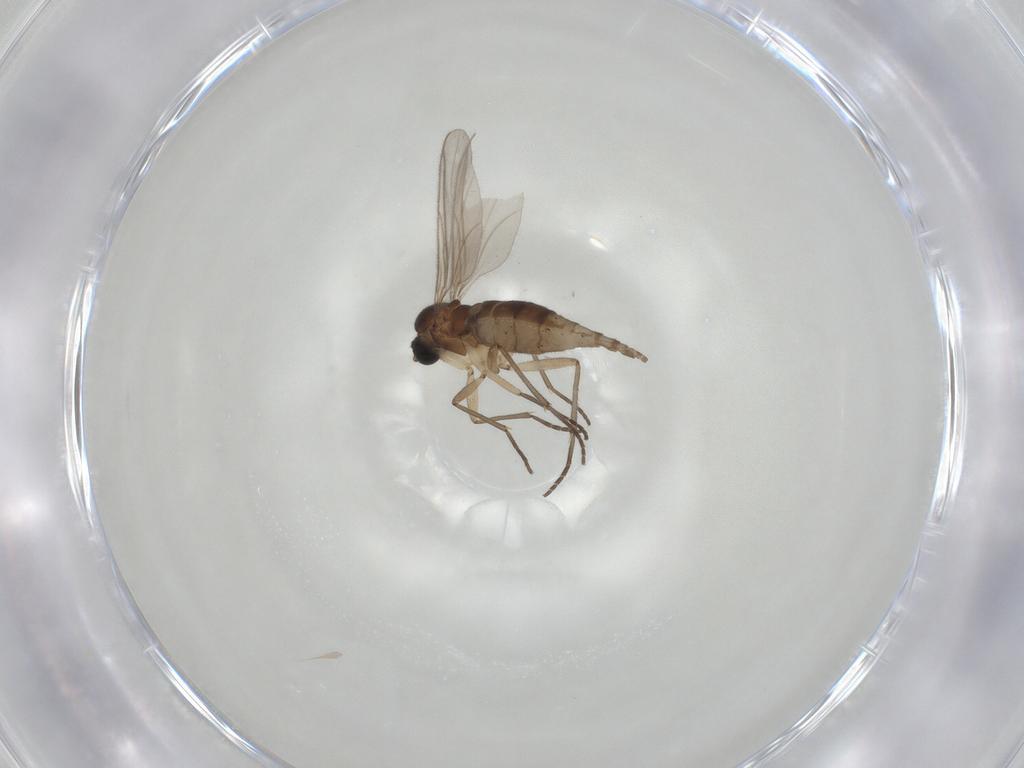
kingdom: Animalia
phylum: Arthropoda
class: Insecta
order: Diptera
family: Sciaridae
